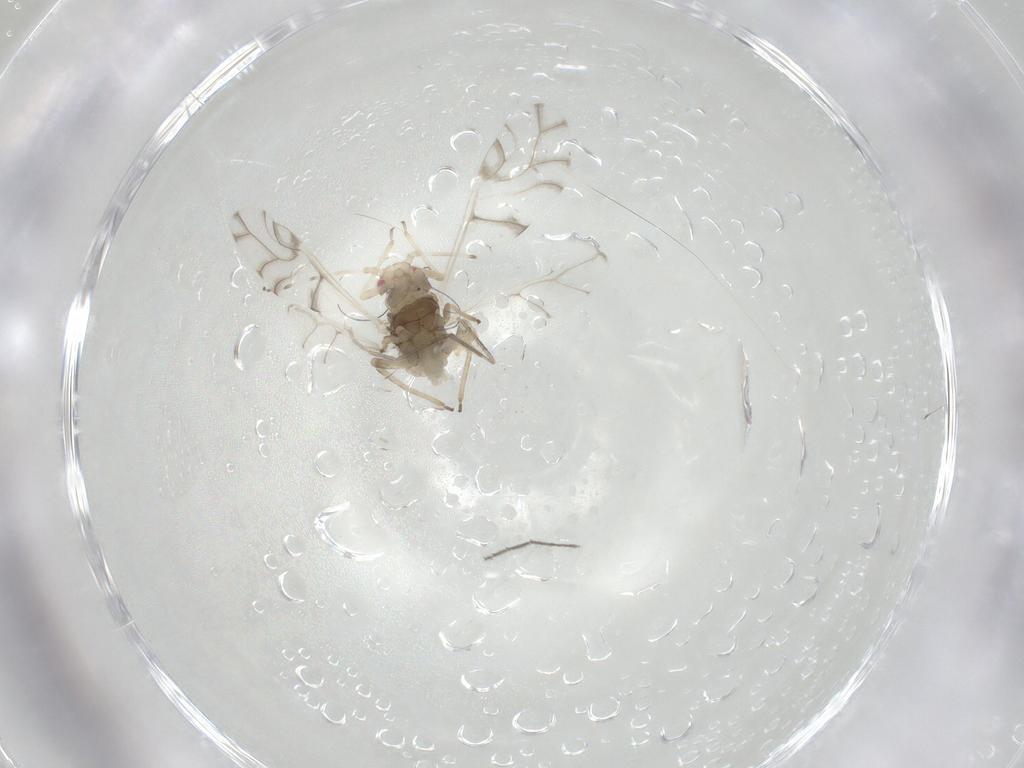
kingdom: Animalia
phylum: Arthropoda
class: Insecta
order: Hemiptera
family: Aphididae
